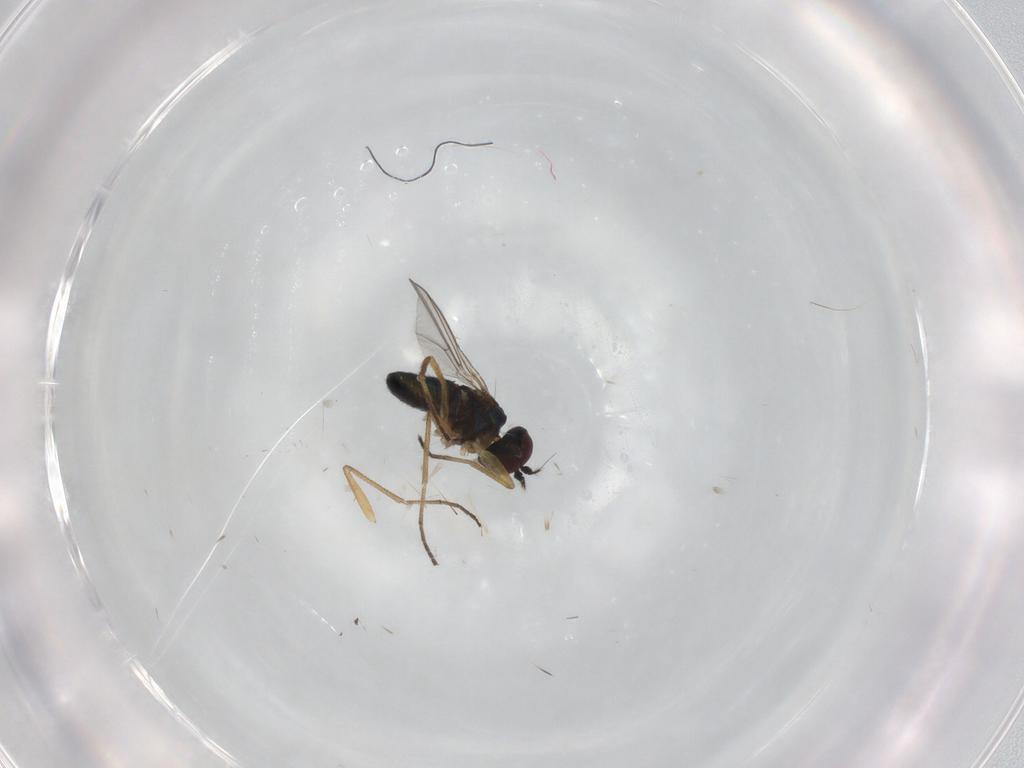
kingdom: Animalia
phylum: Arthropoda
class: Insecta
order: Diptera
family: Dolichopodidae
